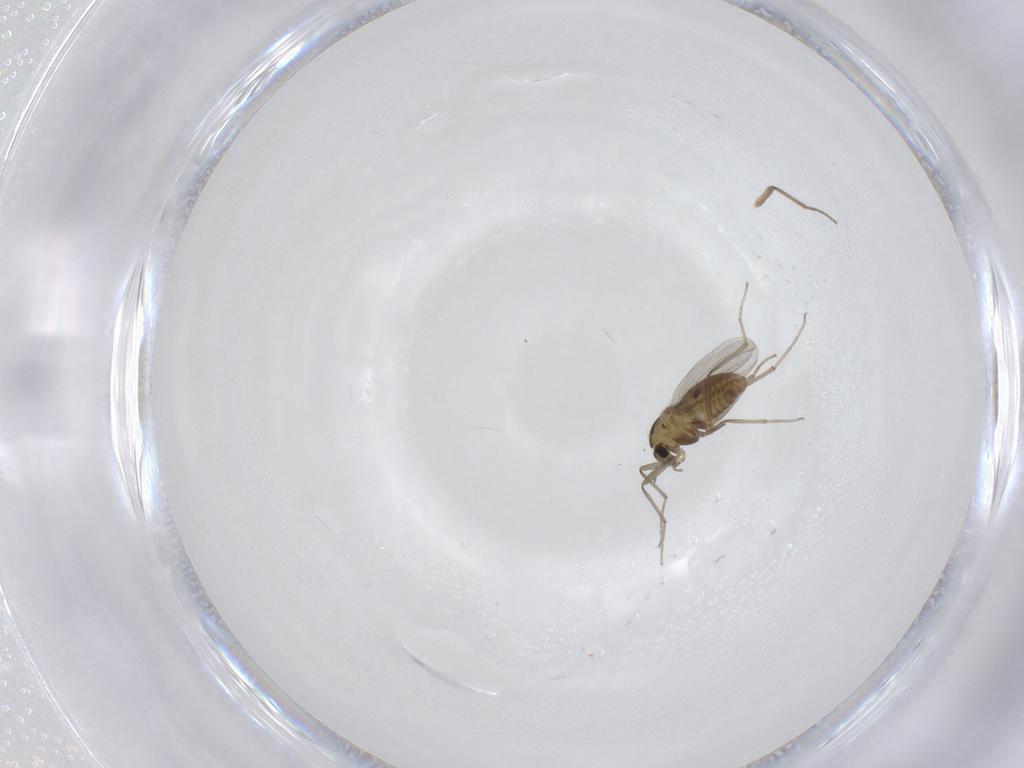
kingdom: Animalia
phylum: Arthropoda
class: Insecta
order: Diptera
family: Chironomidae
